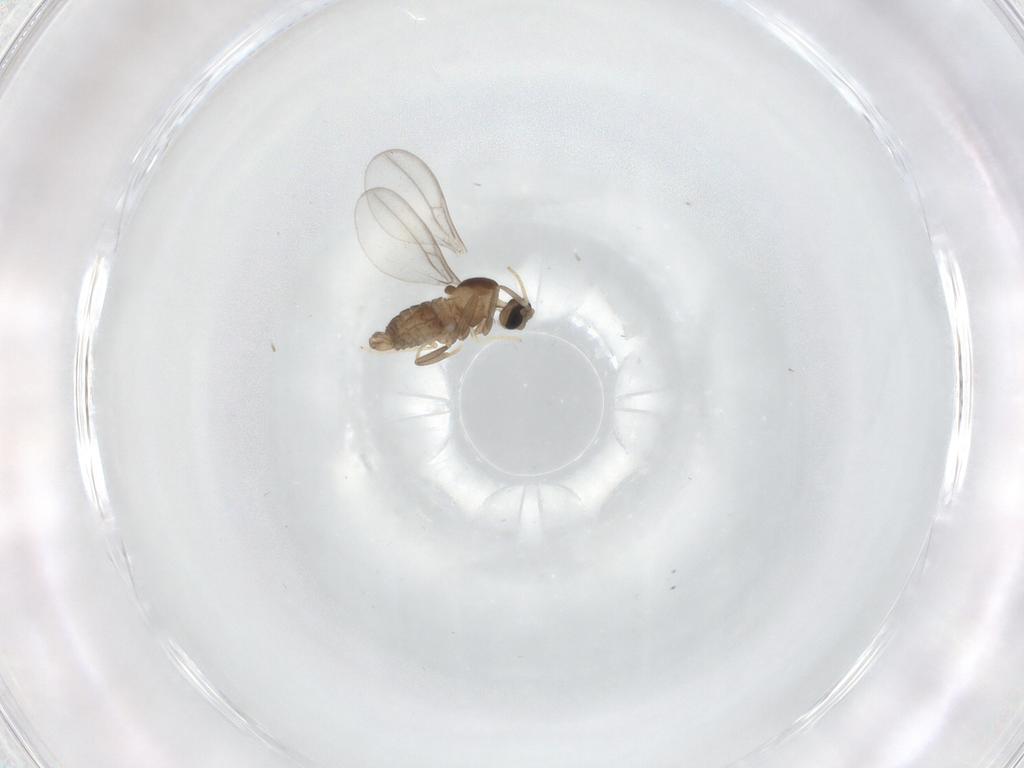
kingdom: Animalia
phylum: Arthropoda
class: Insecta
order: Diptera
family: Cecidomyiidae
